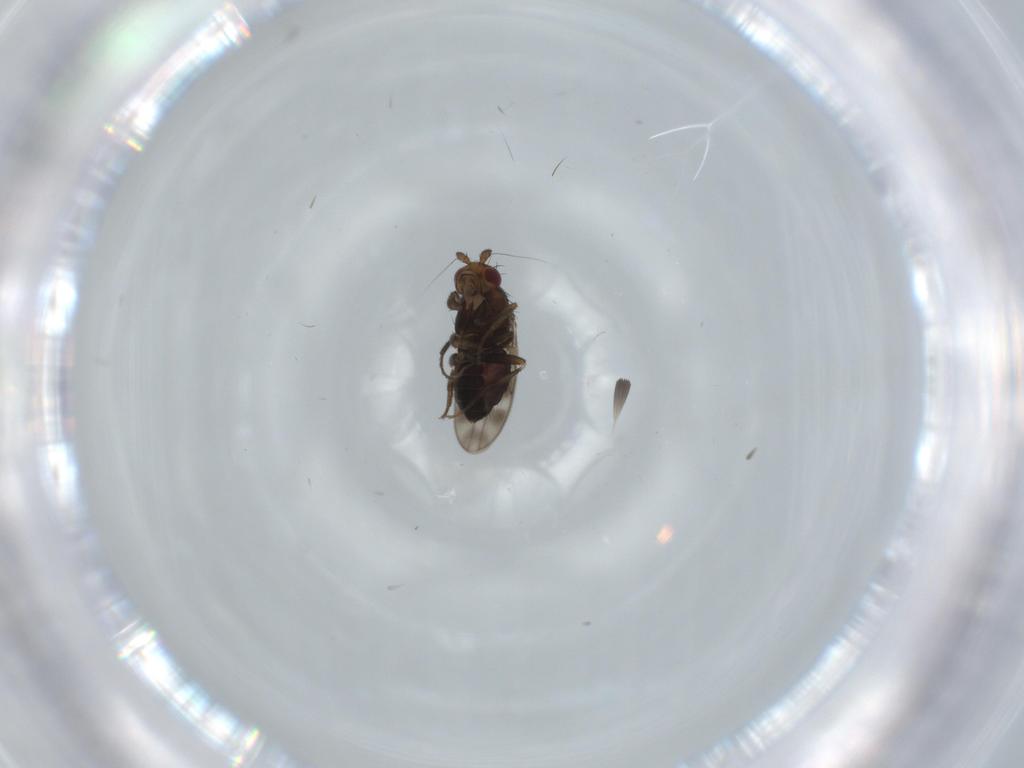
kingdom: Animalia
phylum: Arthropoda
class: Insecta
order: Diptera
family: Sphaeroceridae
